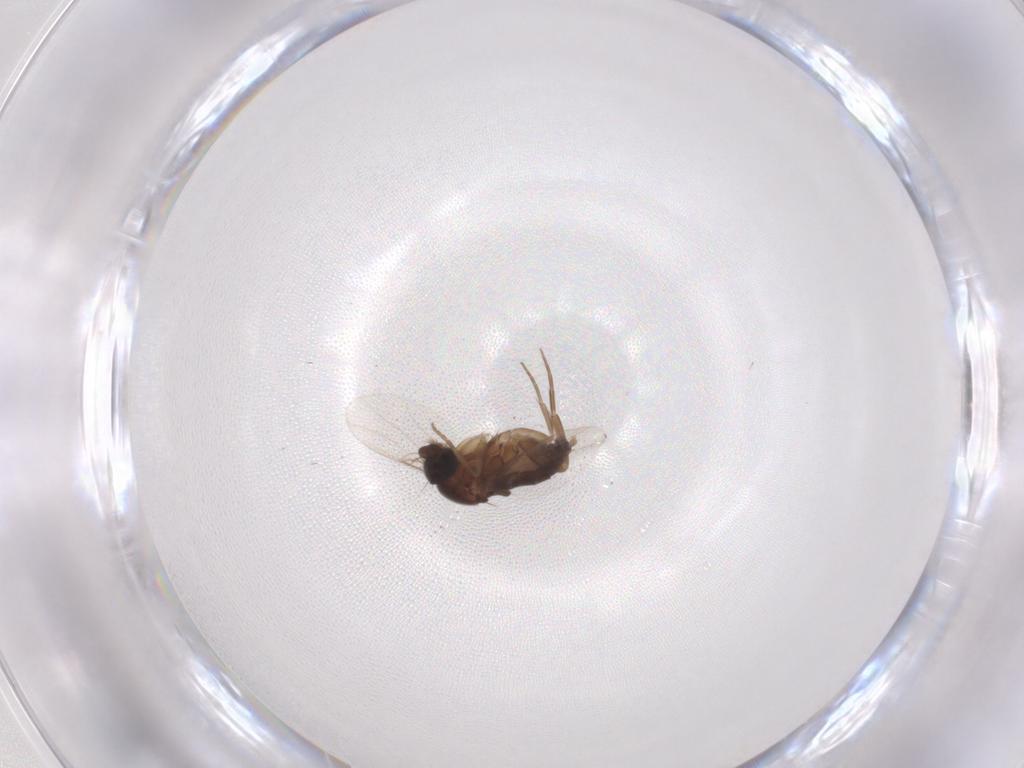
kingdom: Animalia
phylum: Arthropoda
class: Insecta
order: Diptera
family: Phoridae
